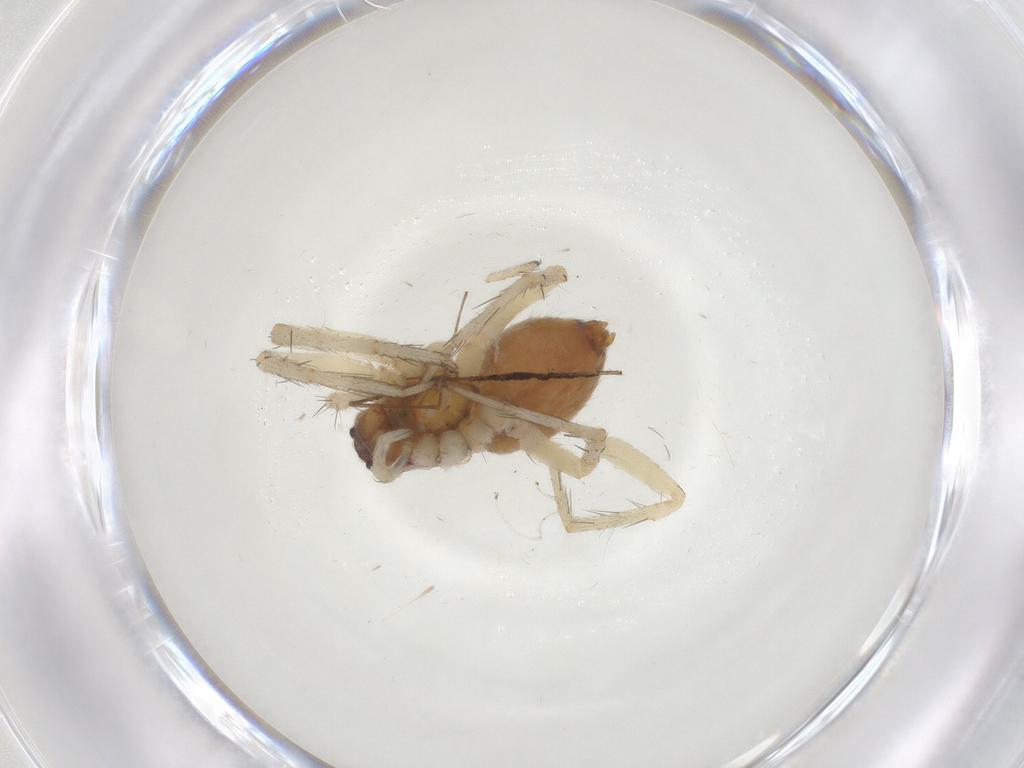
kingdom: Animalia
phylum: Arthropoda
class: Arachnida
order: Araneae
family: Ctenidae
